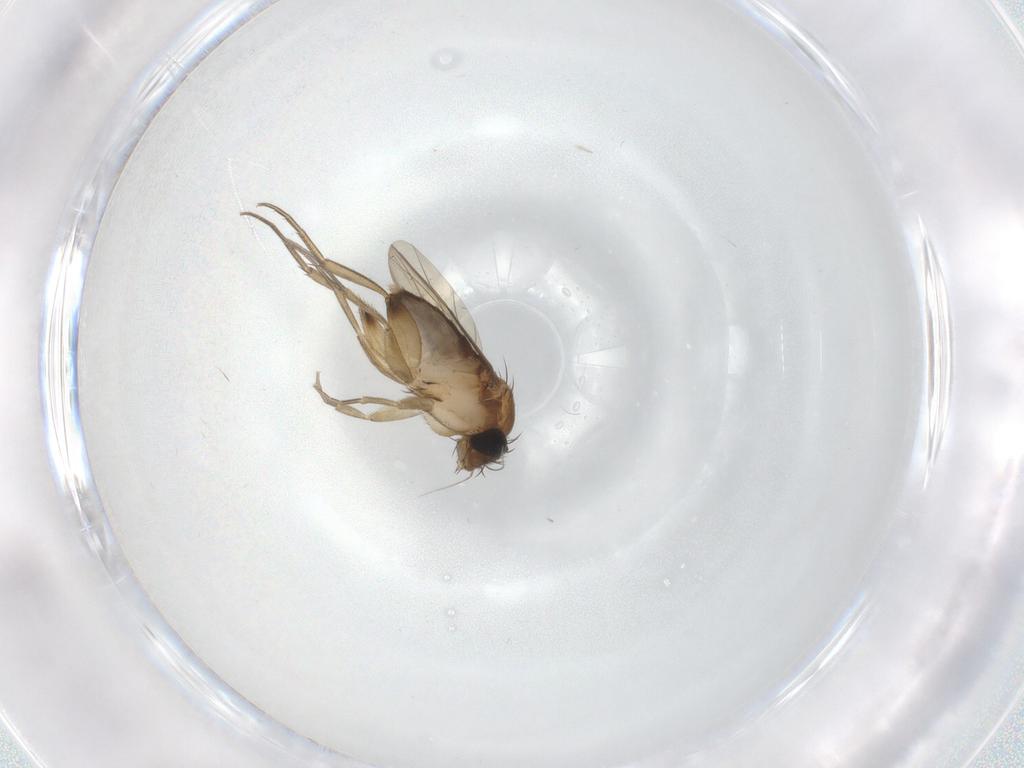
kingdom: Animalia
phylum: Arthropoda
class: Insecta
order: Diptera
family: Phoridae
